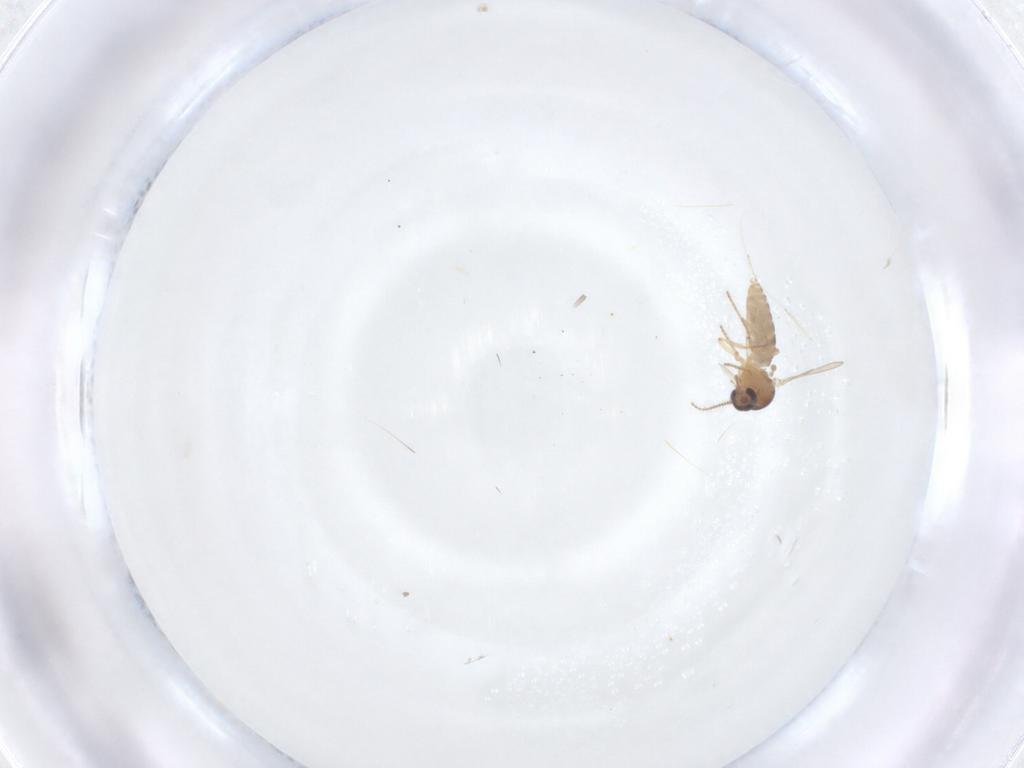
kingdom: Animalia
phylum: Arthropoda
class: Insecta
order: Diptera
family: Ceratopogonidae
